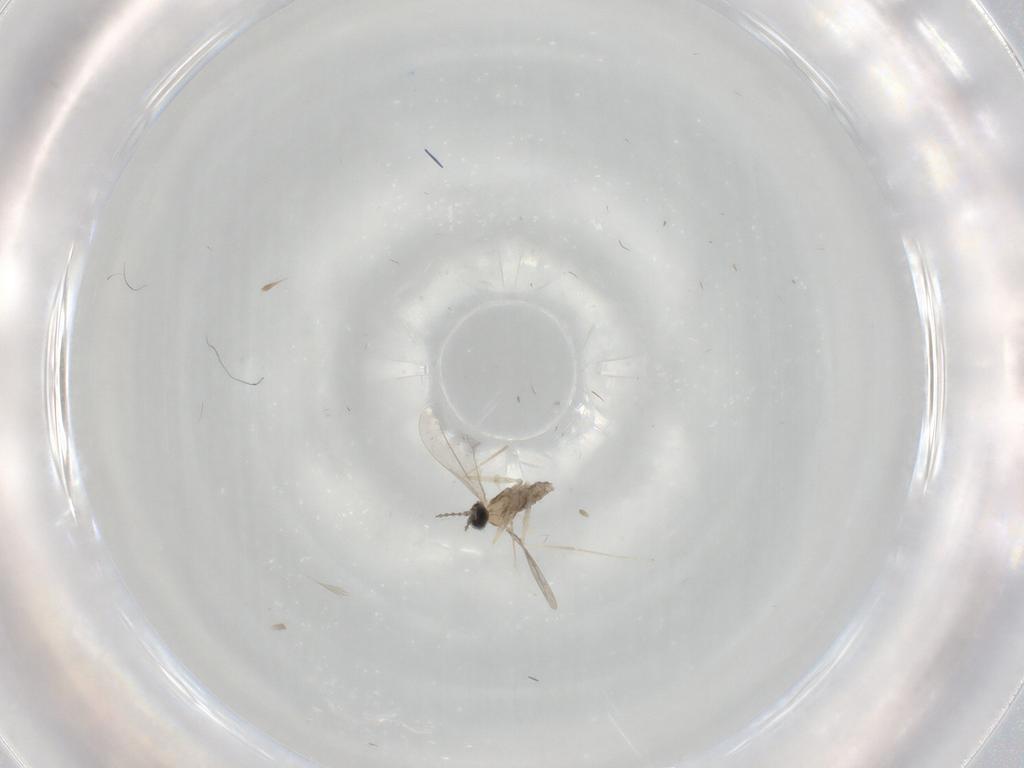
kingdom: Animalia
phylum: Arthropoda
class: Insecta
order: Diptera
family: Cecidomyiidae
